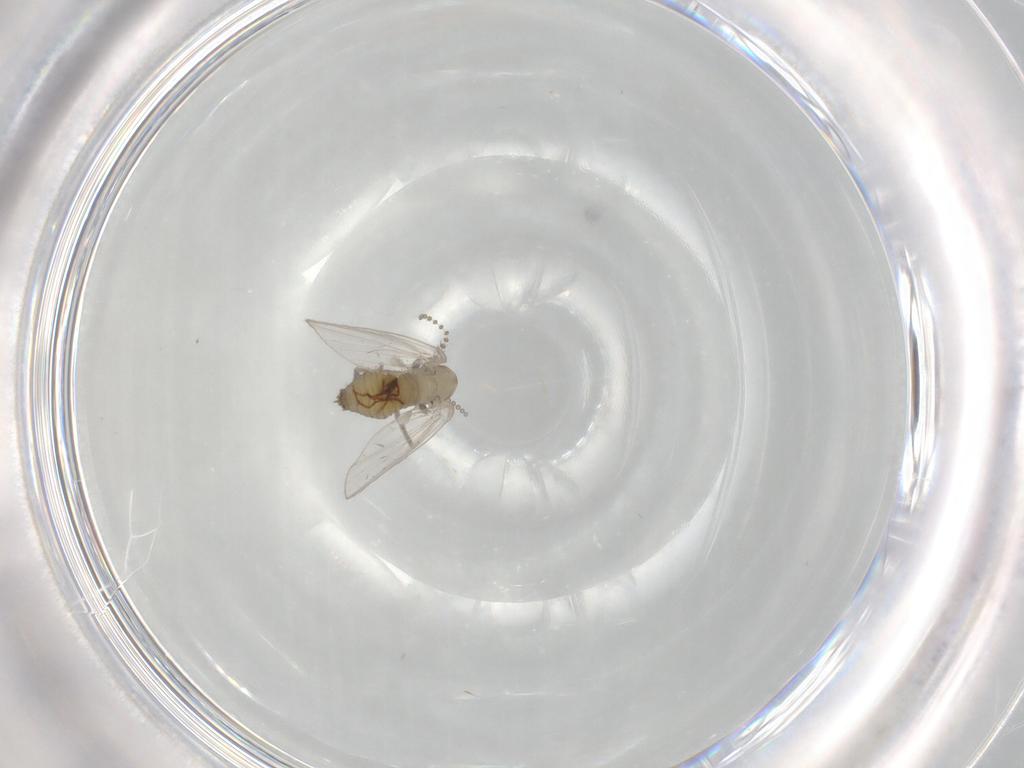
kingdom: Animalia
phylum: Arthropoda
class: Insecta
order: Diptera
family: Psychodidae
